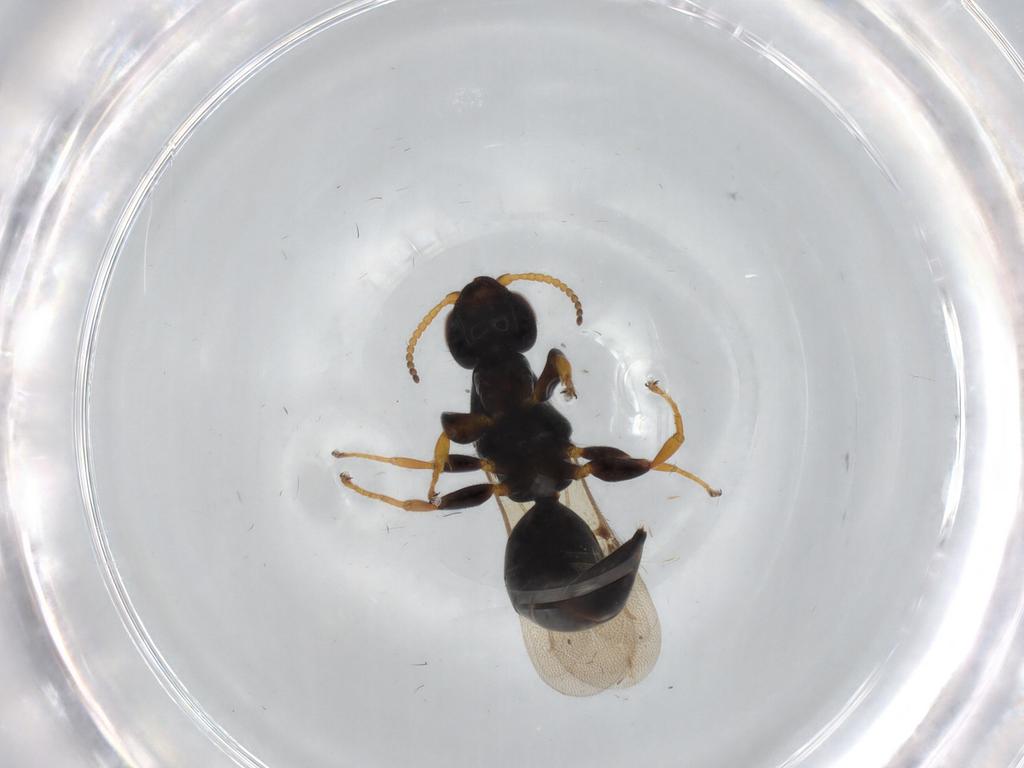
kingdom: Animalia
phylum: Arthropoda
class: Insecta
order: Hymenoptera
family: Bethylidae
